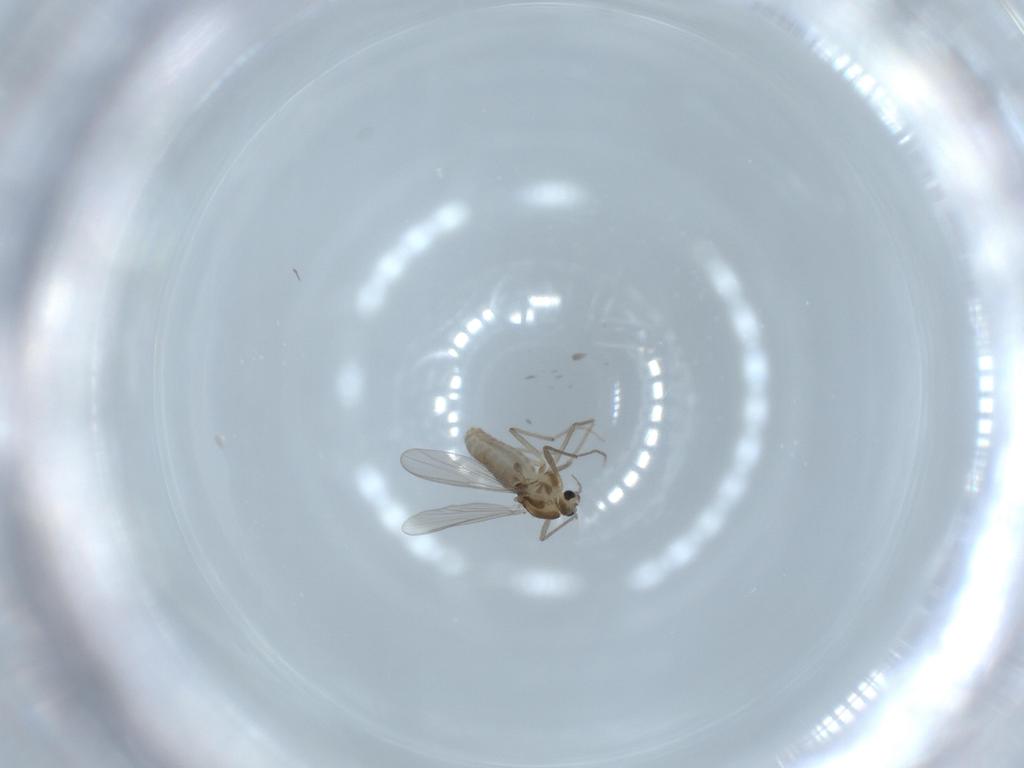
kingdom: Animalia
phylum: Arthropoda
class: Insecta
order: Diptera
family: Chironomidae
